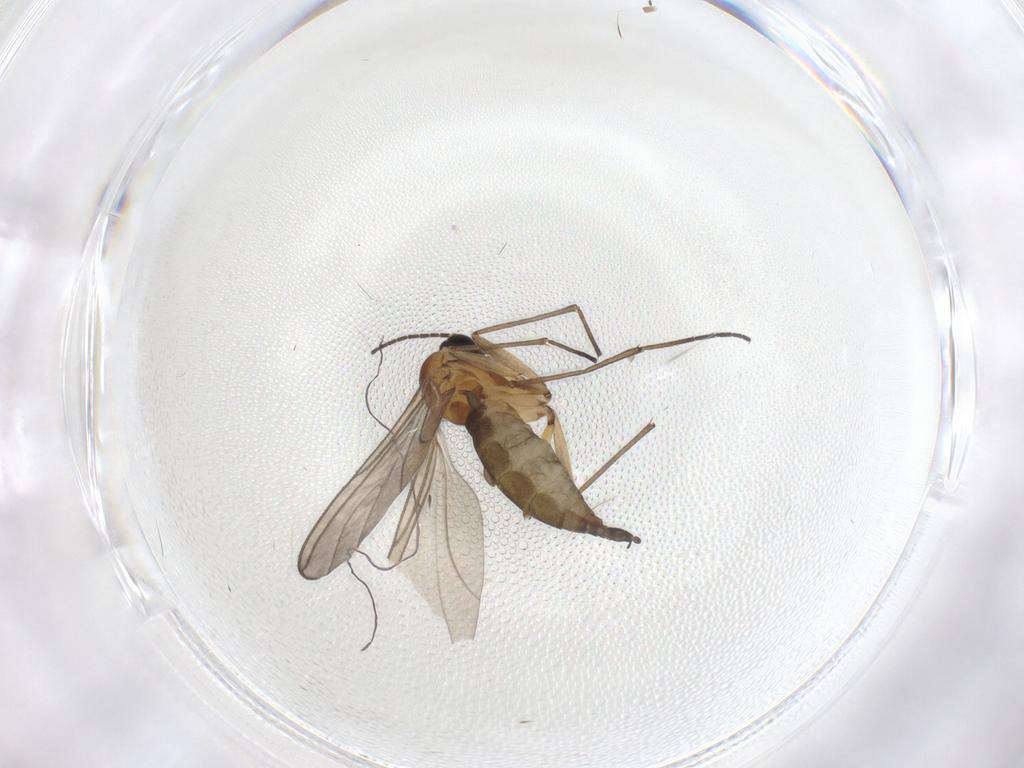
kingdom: Animalia
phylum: Arthropoda
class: Insecta
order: Diptera
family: Sciaridae
